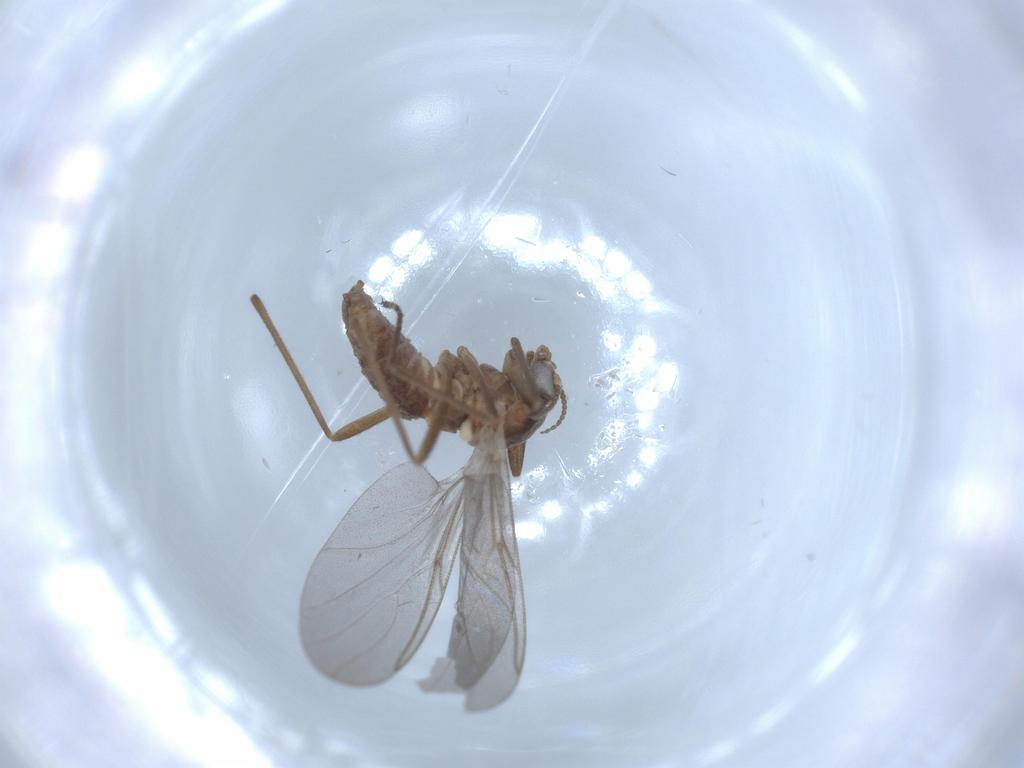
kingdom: Animalia
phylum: Arthropoda
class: Insecta
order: Diptera
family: Cecidomyiidae
